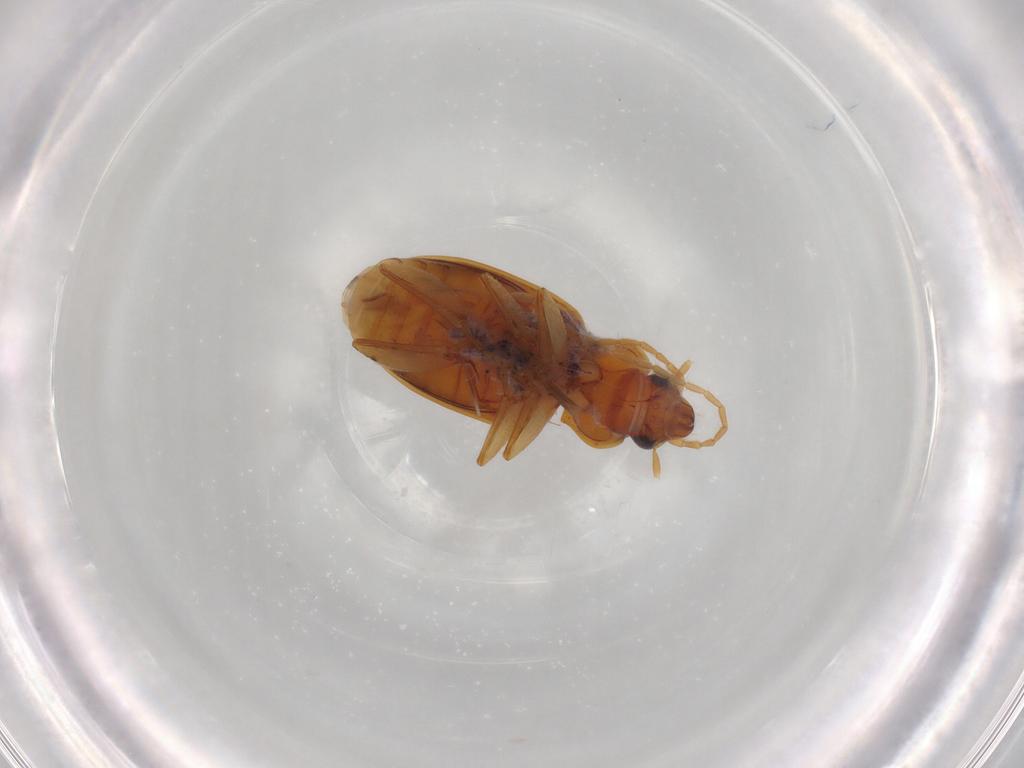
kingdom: Animalia
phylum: Arthropoda
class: Insecta
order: Coleoptera
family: Carabidae
